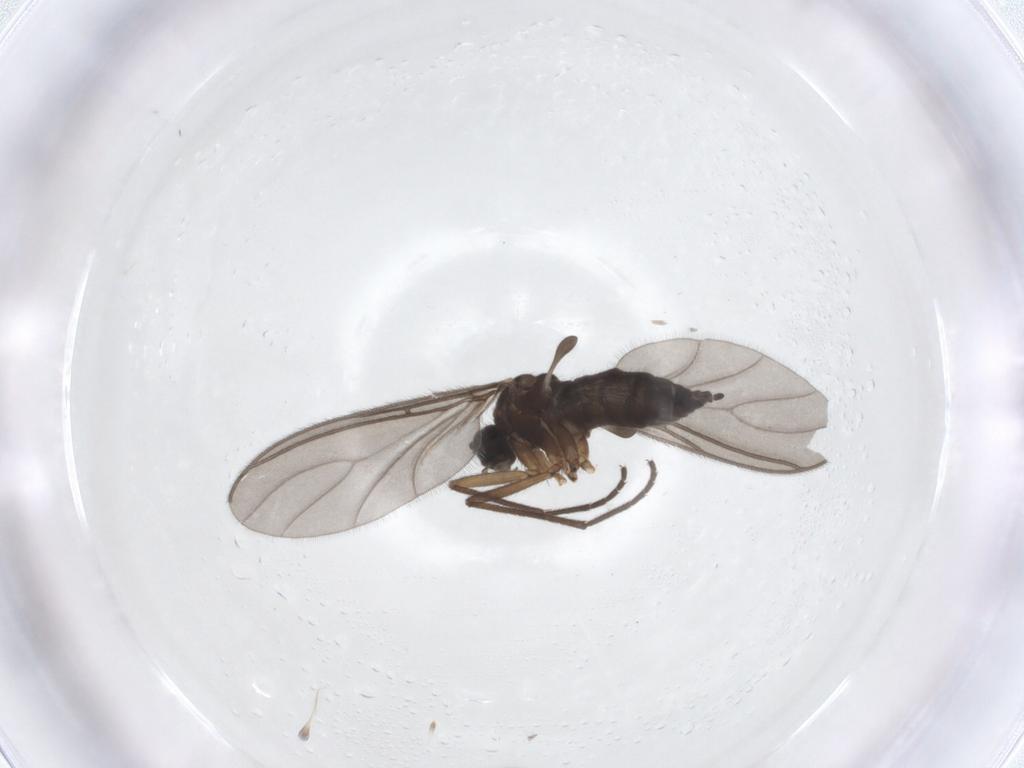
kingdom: Animalia
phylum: Arthropoda
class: Insecta
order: Diptera
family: Sciaridae
